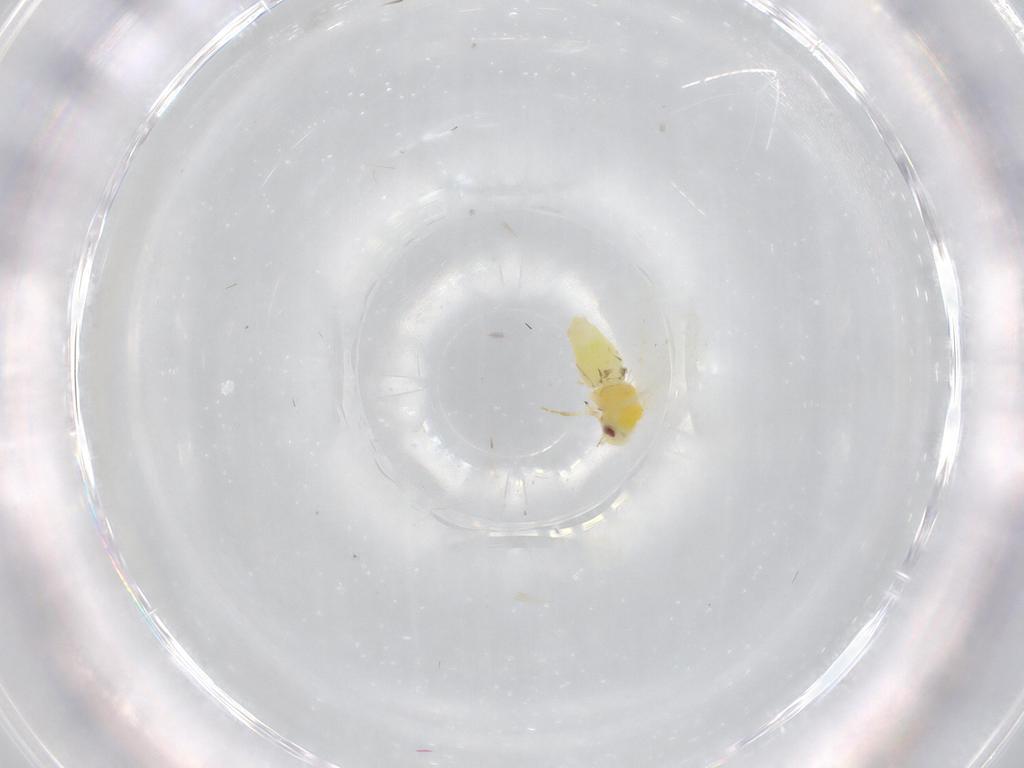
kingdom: Animalia
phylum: Arthropoda
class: Insecta
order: Hemiptera
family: Aleyrodidae
